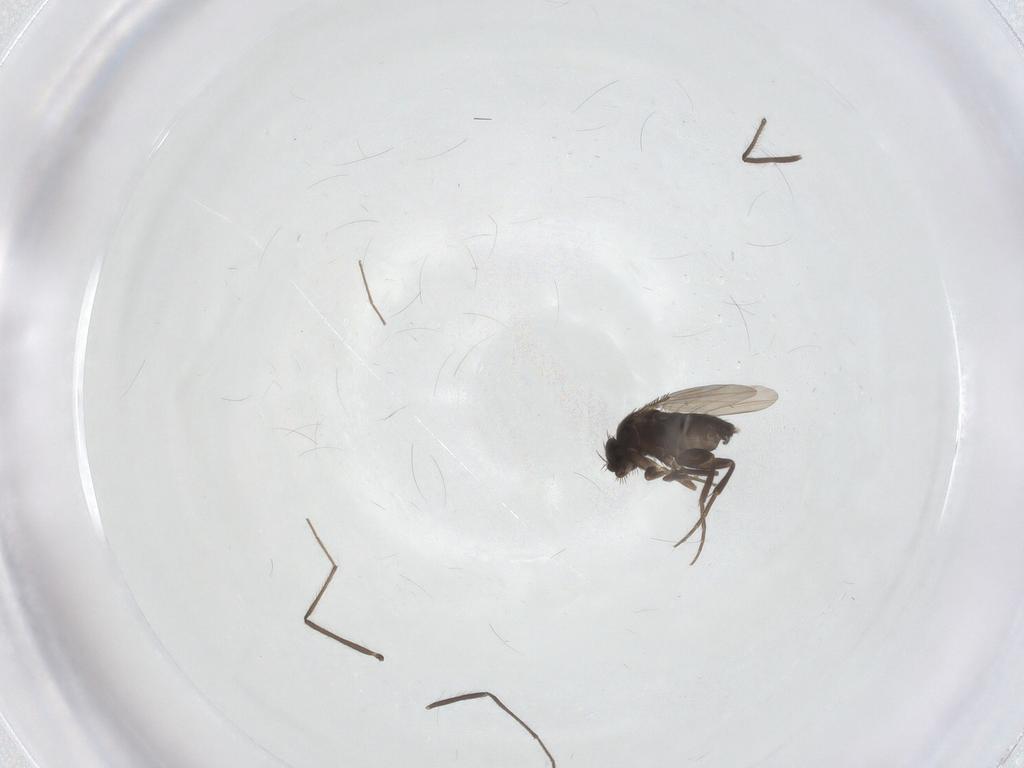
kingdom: Animalia
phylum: Arthropoda
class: Insecta
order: Diptera
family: Phoridae
